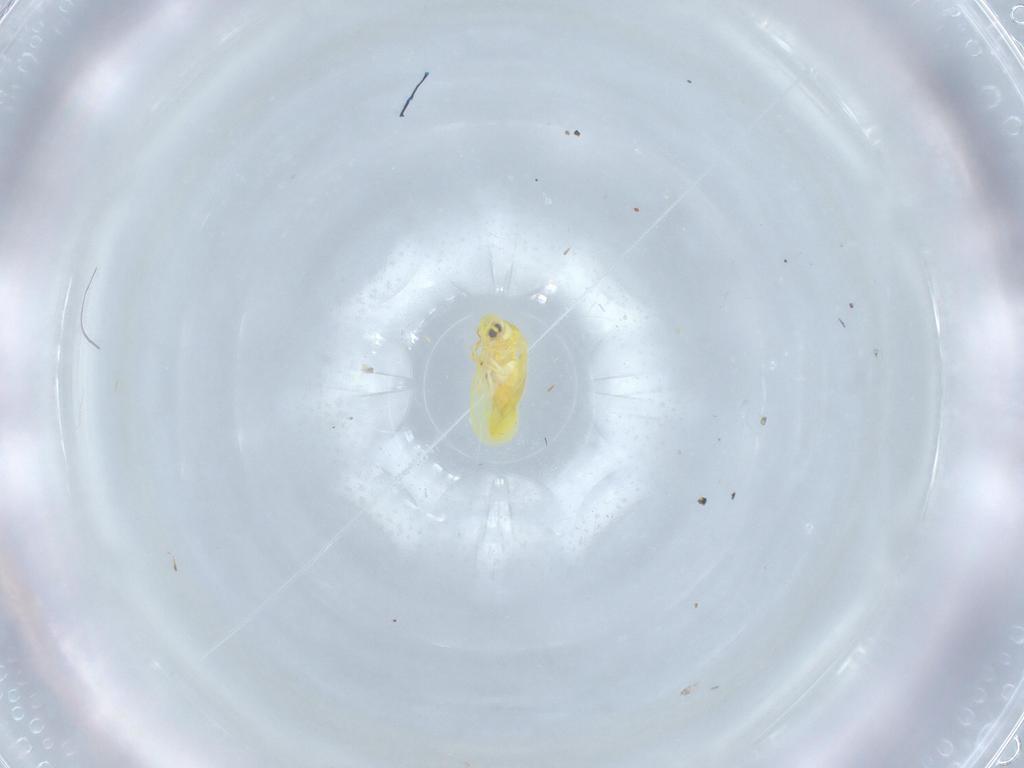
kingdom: Animalia
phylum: Arthropoda
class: Insecta
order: Hemiptera
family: Aleyrodidae
